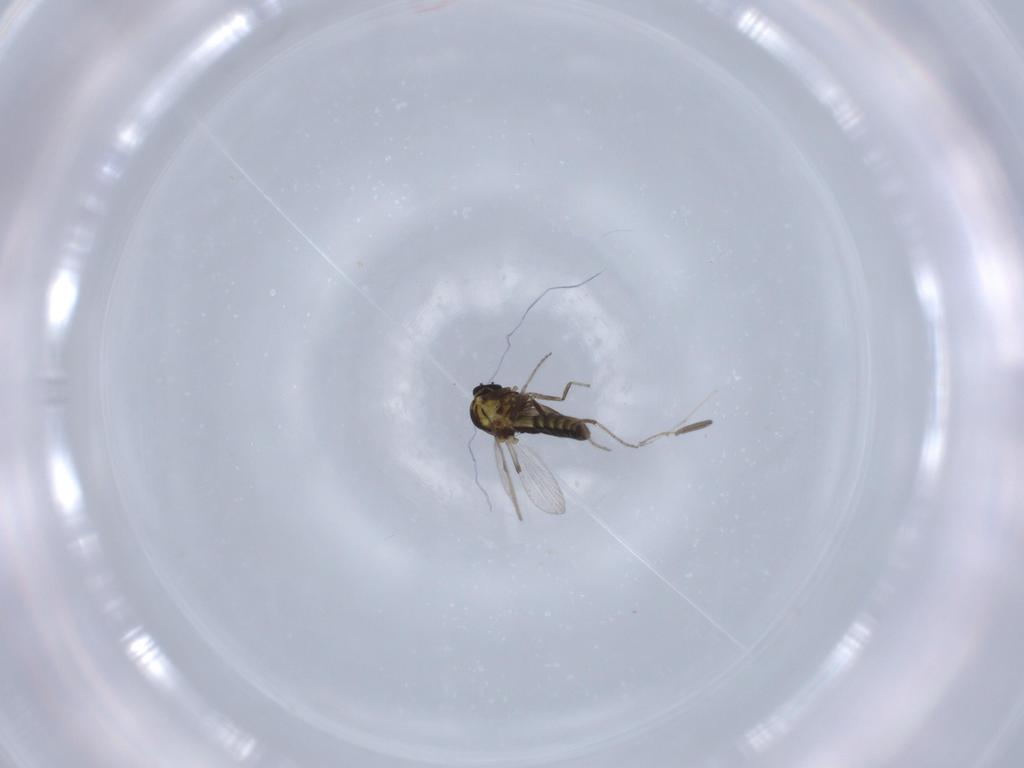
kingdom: Animalia
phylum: Arthropoda
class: Insecta
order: Diptera
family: Ceratopogonidae
